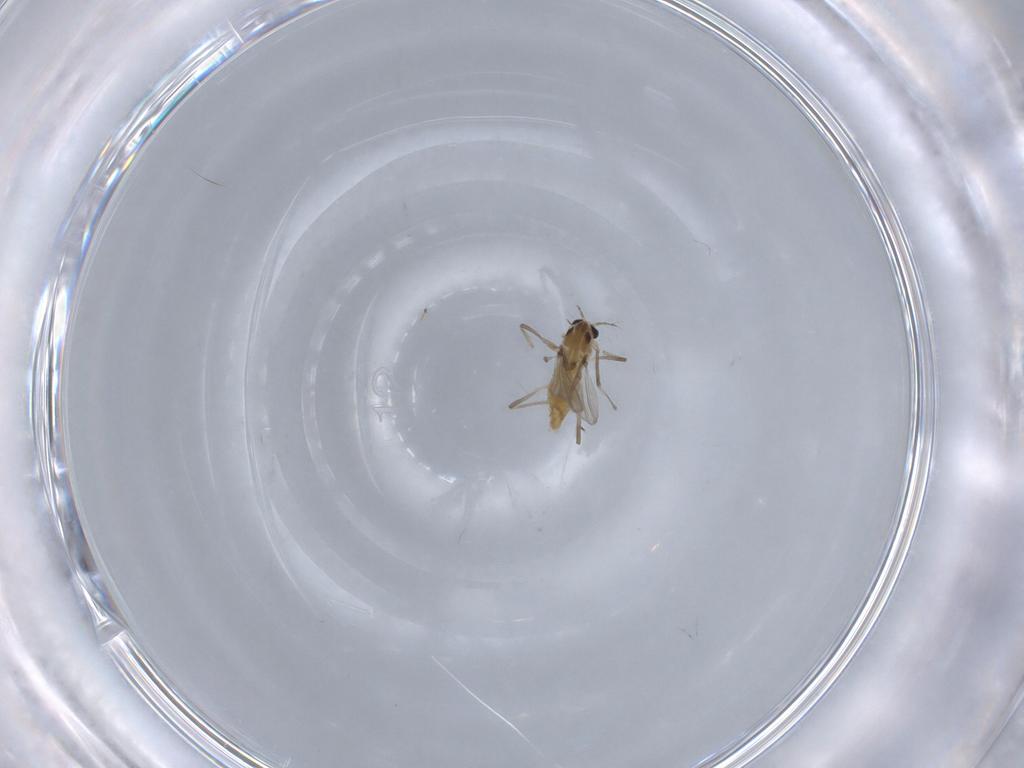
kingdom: Animalia
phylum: Arthropoda
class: Insecta
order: Diptera
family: Chironomidae
